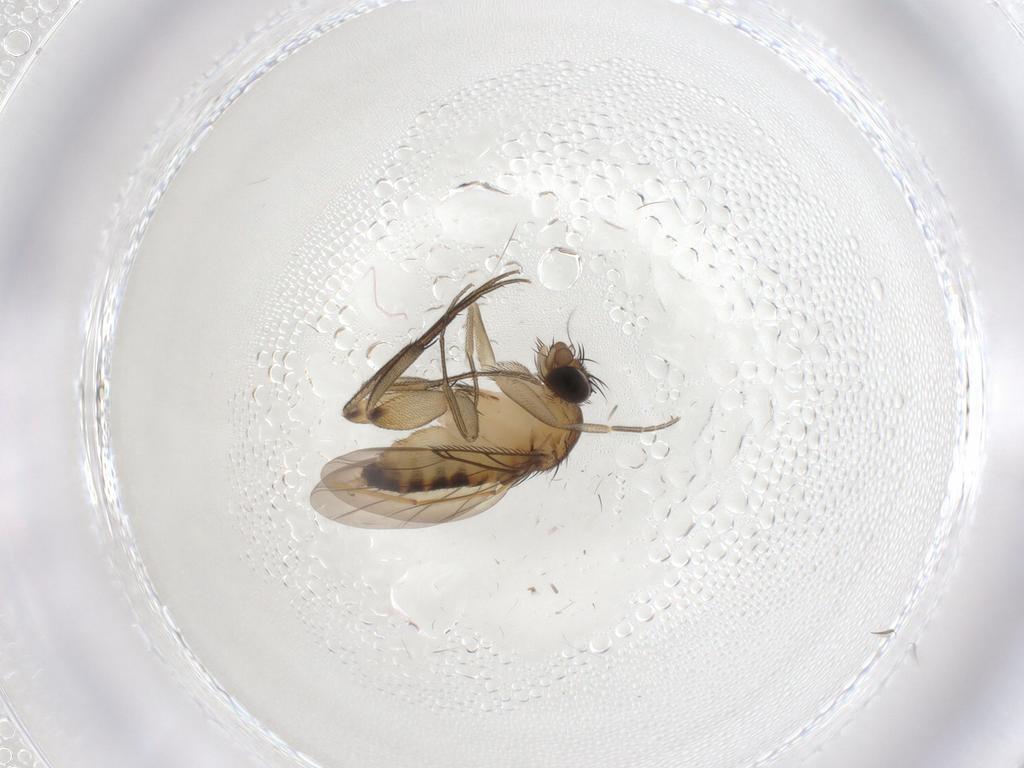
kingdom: Animalia
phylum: Arthropoda
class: Insecta
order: Diptera
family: Phoridae
